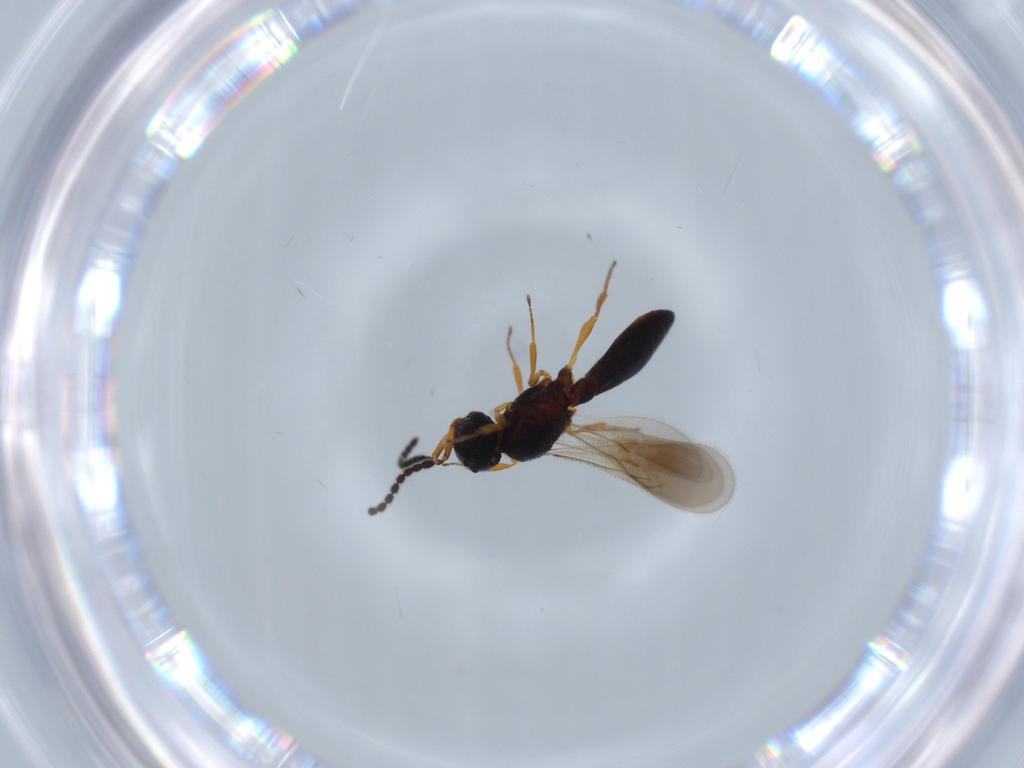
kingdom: Animalia
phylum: Arthropoda
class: Insecta
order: Hymenoptera
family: Scelionidae
